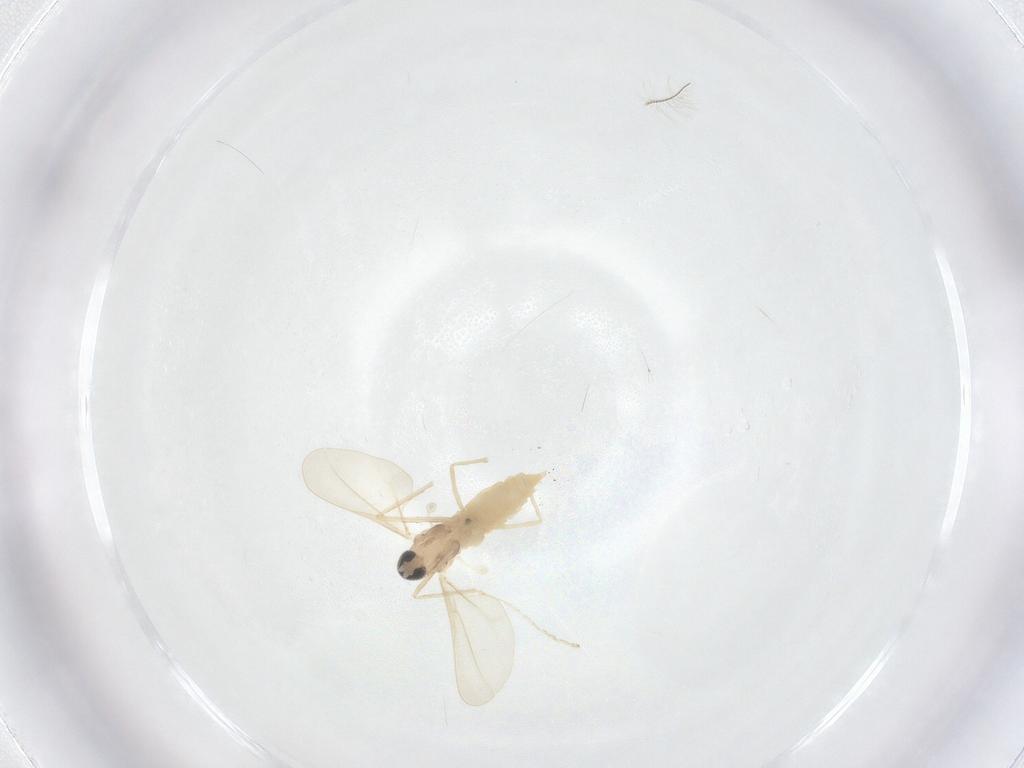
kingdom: Animalia
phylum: Arthropoda
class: Insecta
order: Diptera
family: Cecidomyiidae
